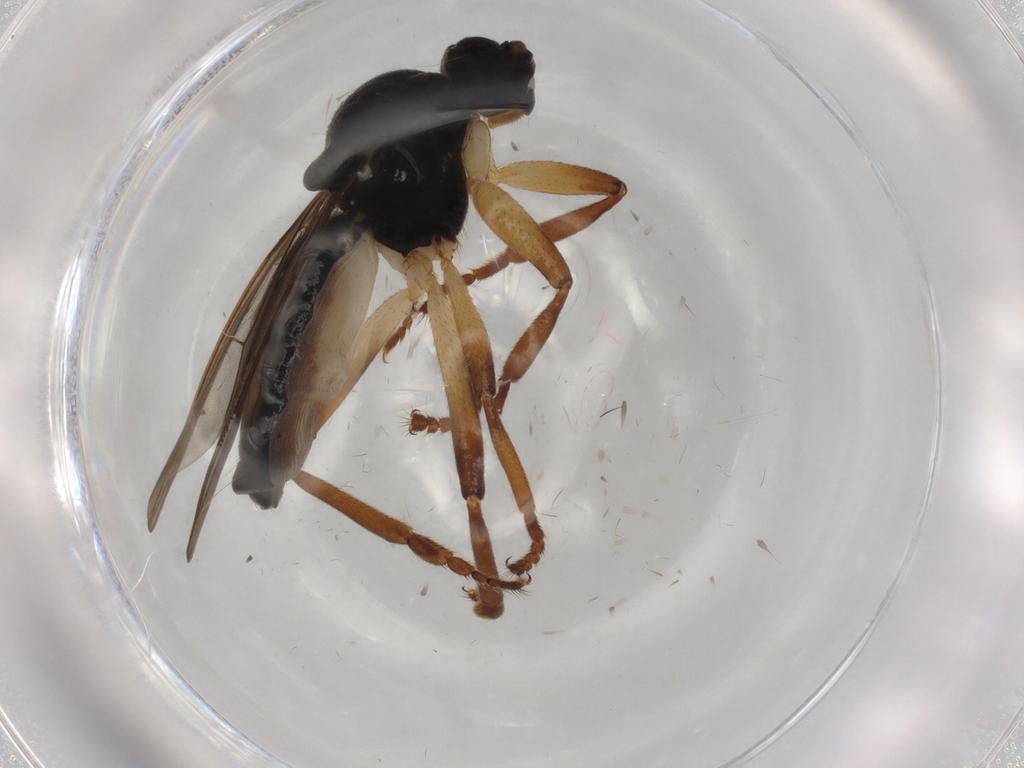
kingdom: Animalia
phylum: Arthropoda
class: Insecta
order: Diptera
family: Sphaeroceridae
